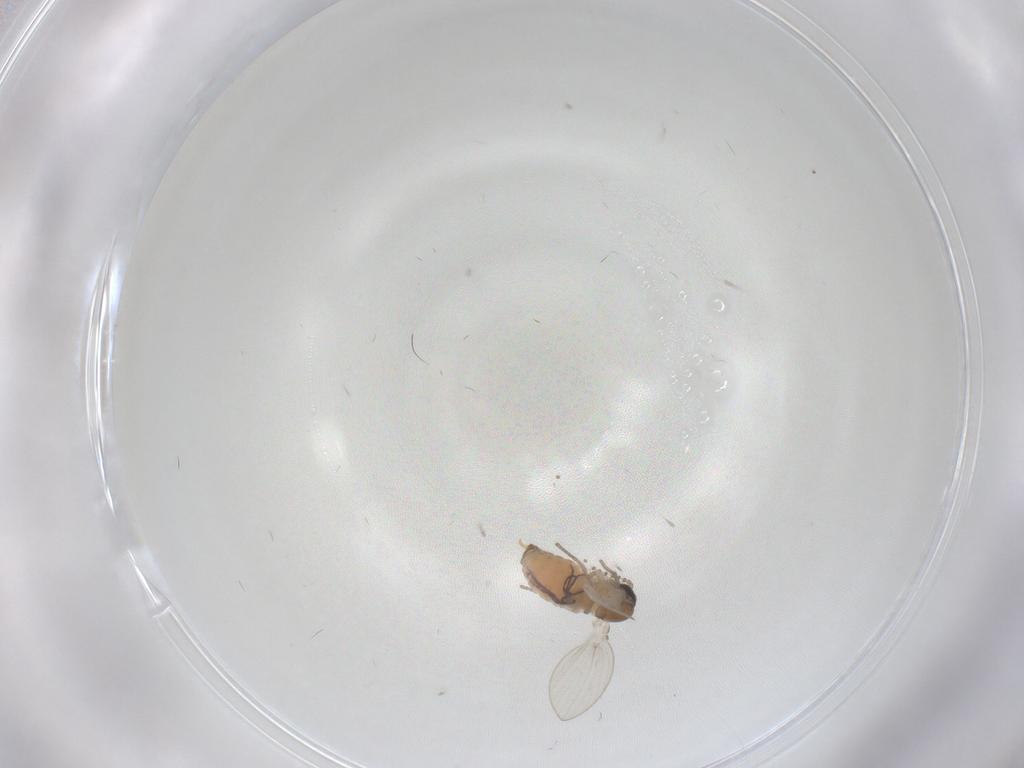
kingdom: Animalia
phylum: Arthropoda
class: Insecta
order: Diptera
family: Psychodidae
